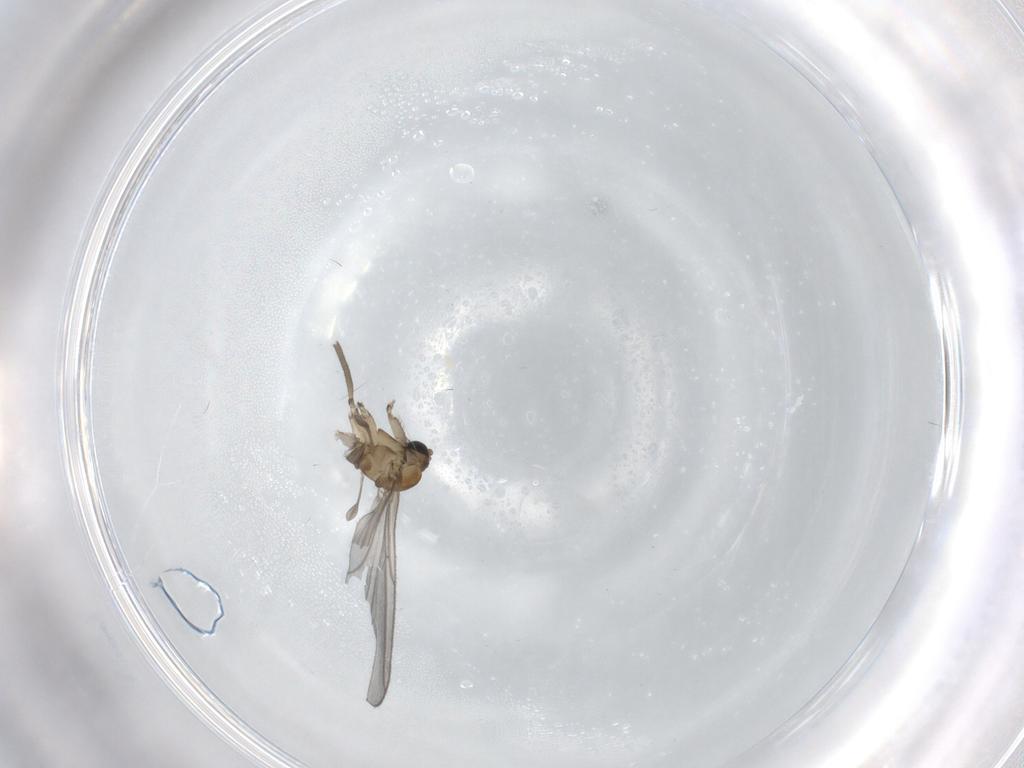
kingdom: Animalia
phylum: Arthropoda
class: Insecta
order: Diptera
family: Sciaridae
